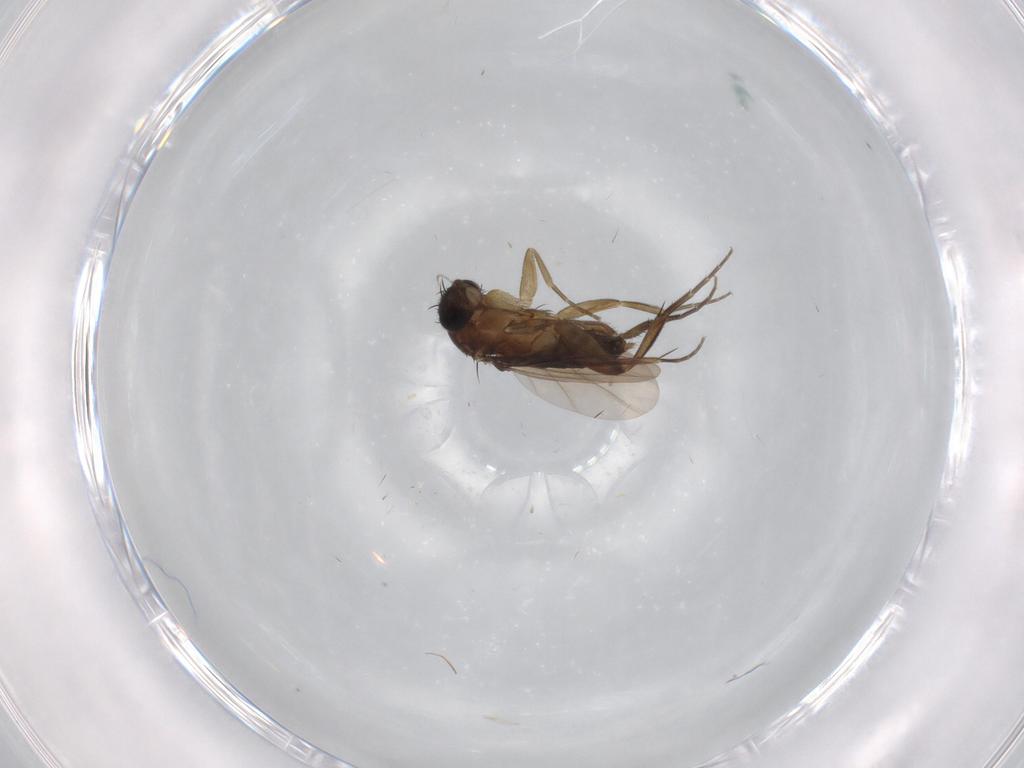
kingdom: Animalia
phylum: Arthropoda
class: Insecta
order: Diptera
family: Phoridae
